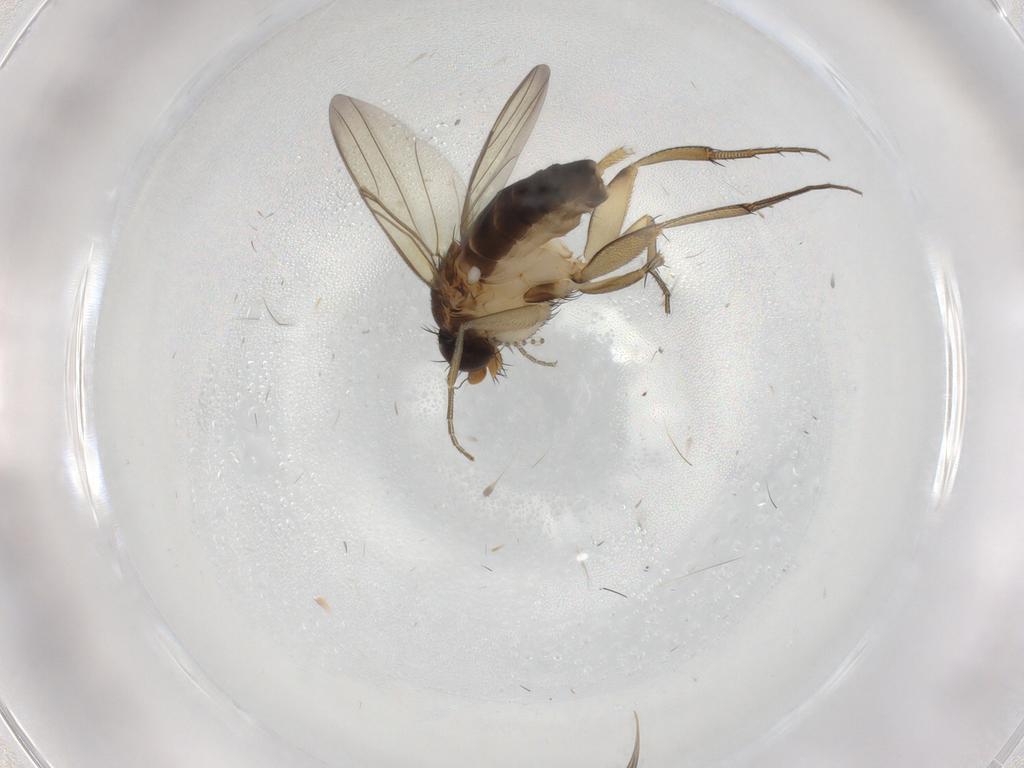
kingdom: Animalia
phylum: Arthropoda
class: Insecta
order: Diptera
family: Phoridae
